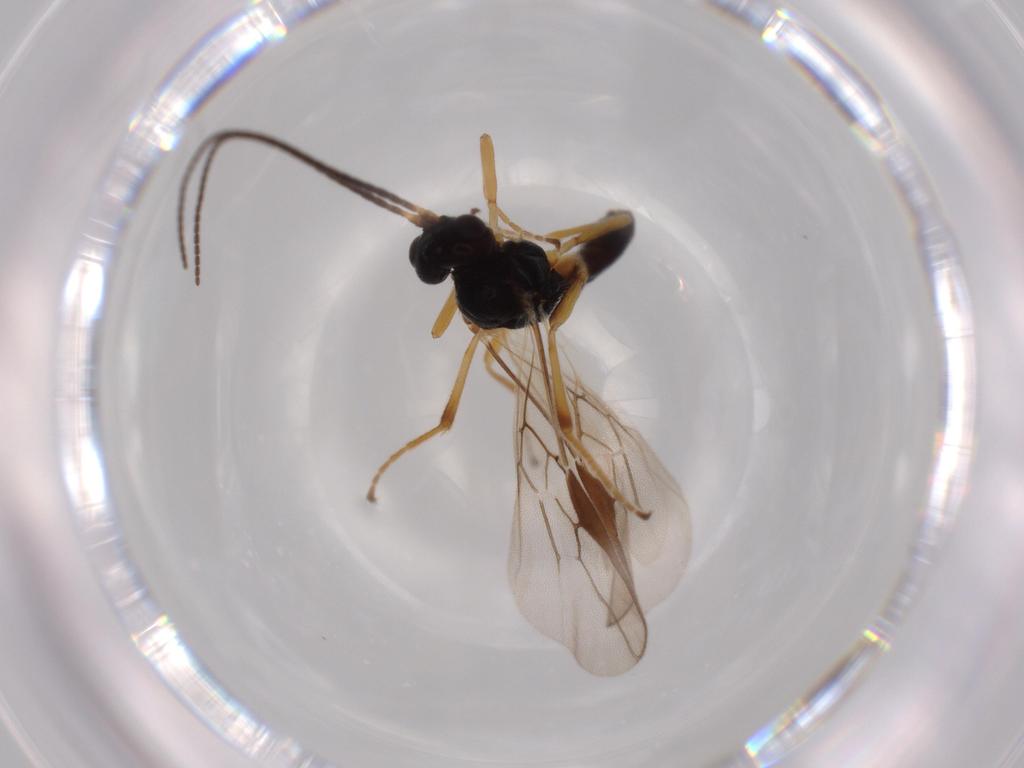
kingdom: Animalia
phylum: Arthropoda
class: Insecta
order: Hymenoptera
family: Braconidae
